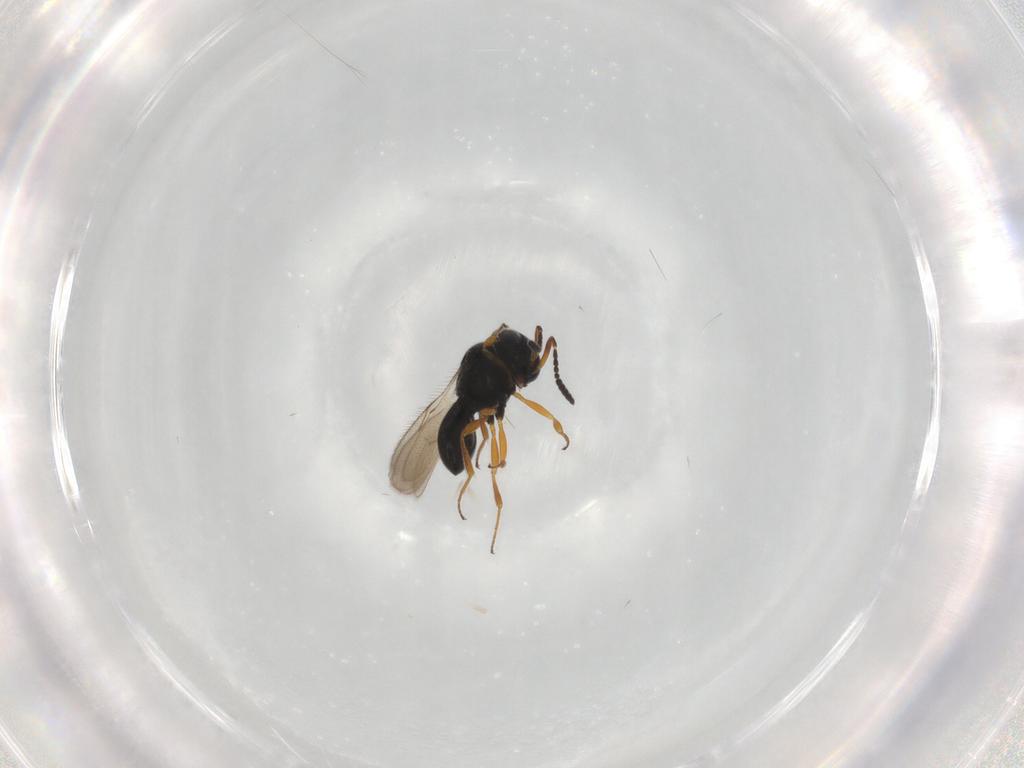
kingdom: Animalia
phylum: Arthropoda
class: Insecta
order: Hymenoptera
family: Scelionidae
